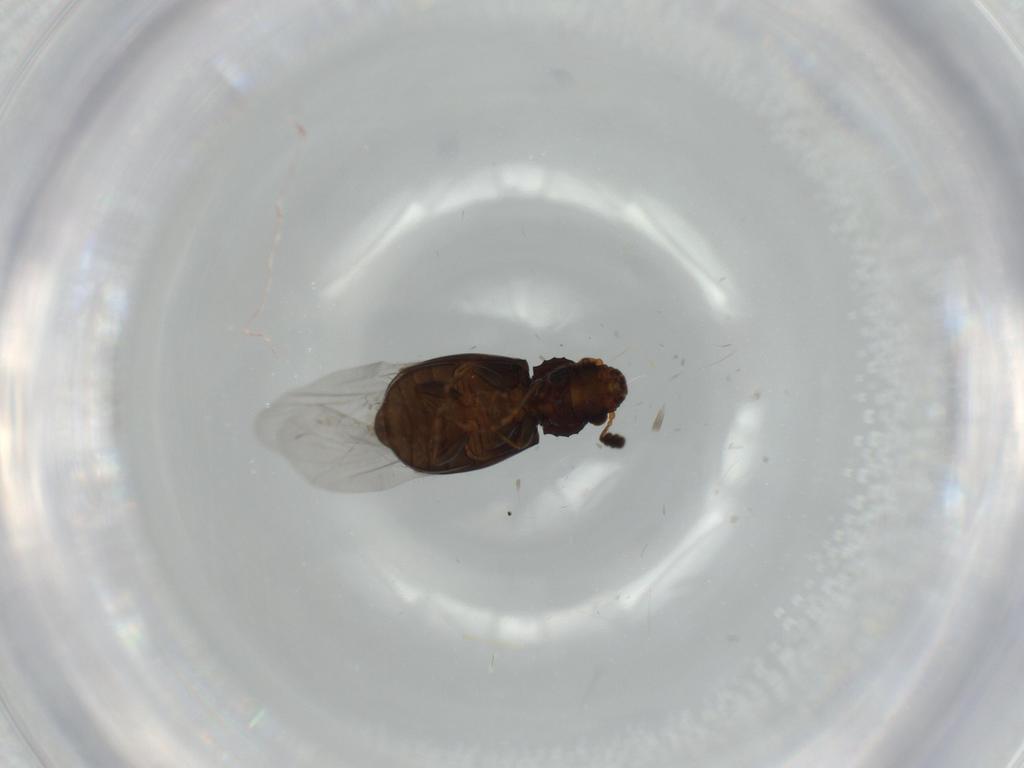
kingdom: Animalia
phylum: Arthropoda
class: Insecta
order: Coleoptera
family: Salpingidae
